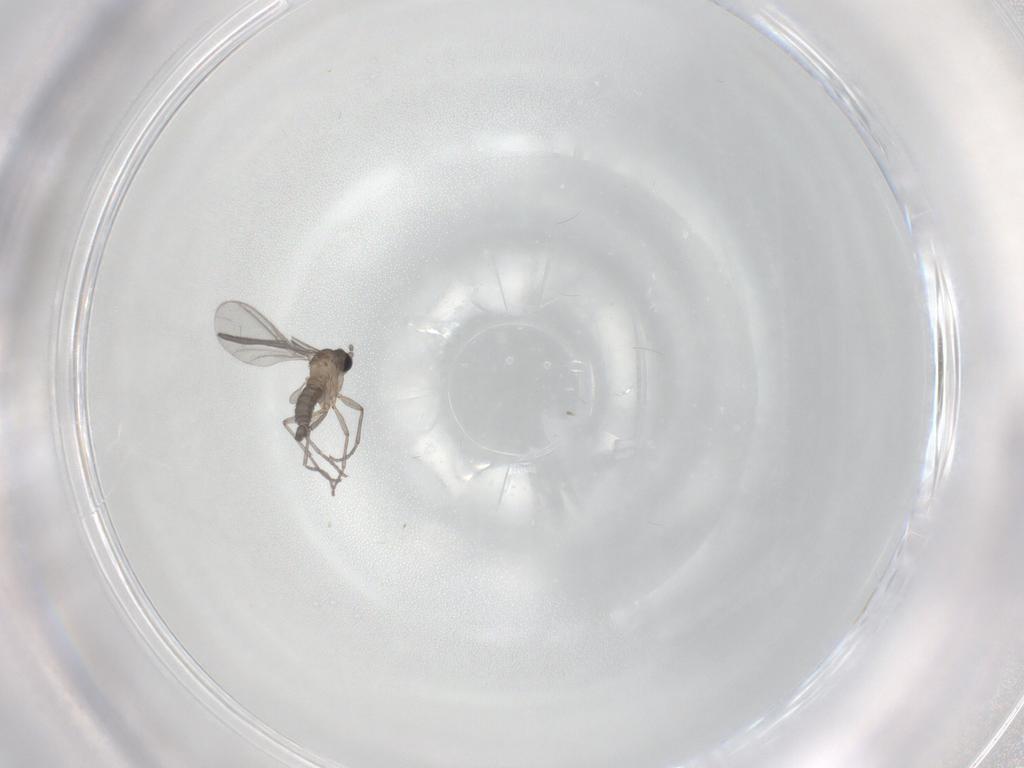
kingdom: Animalia
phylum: Arthropoda
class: Insecta
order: Diptera
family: Sciaridae
